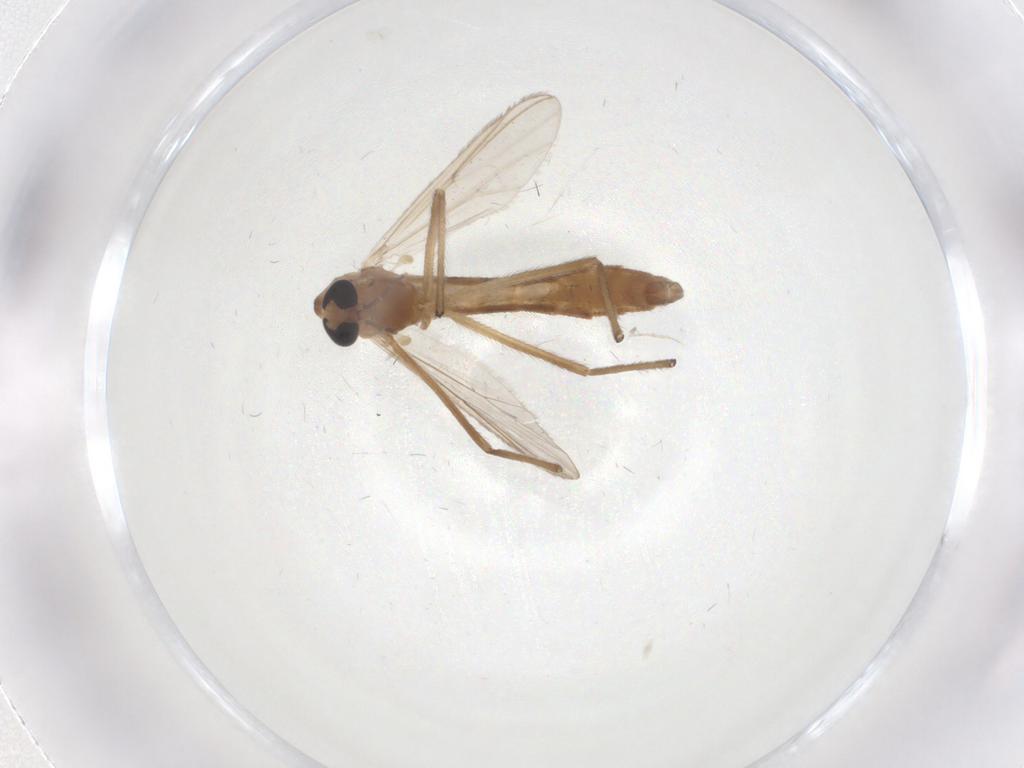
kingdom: Animalia
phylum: Arthropoda
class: Insecta
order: Diptera
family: Chironomidae
